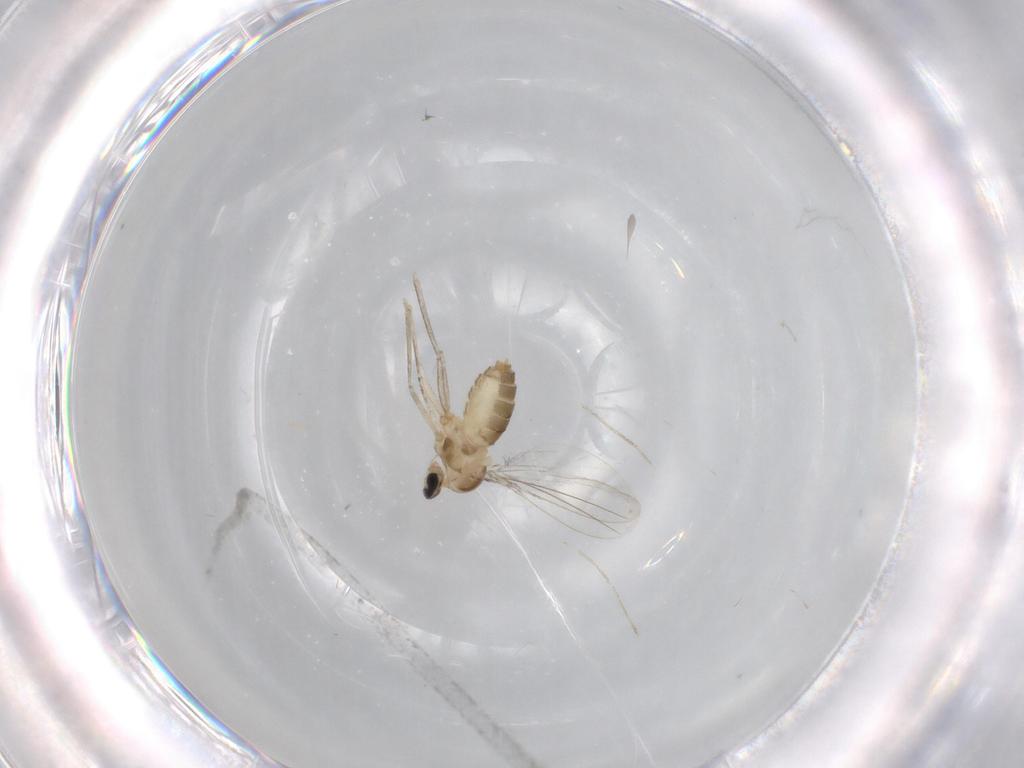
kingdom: Animalia
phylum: Arthropoda
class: Insecta
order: Diptera
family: Cecidomyiidae
